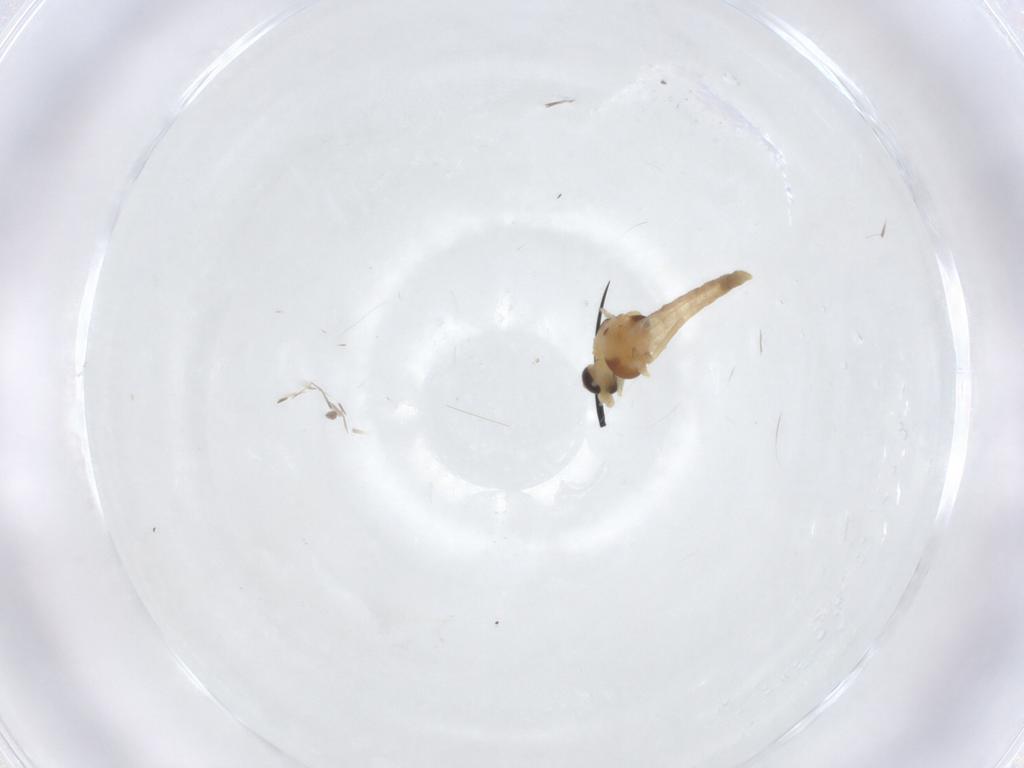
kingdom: Animalia
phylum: Arthropoda
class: Insecta
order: Diptera
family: Chironomidae
